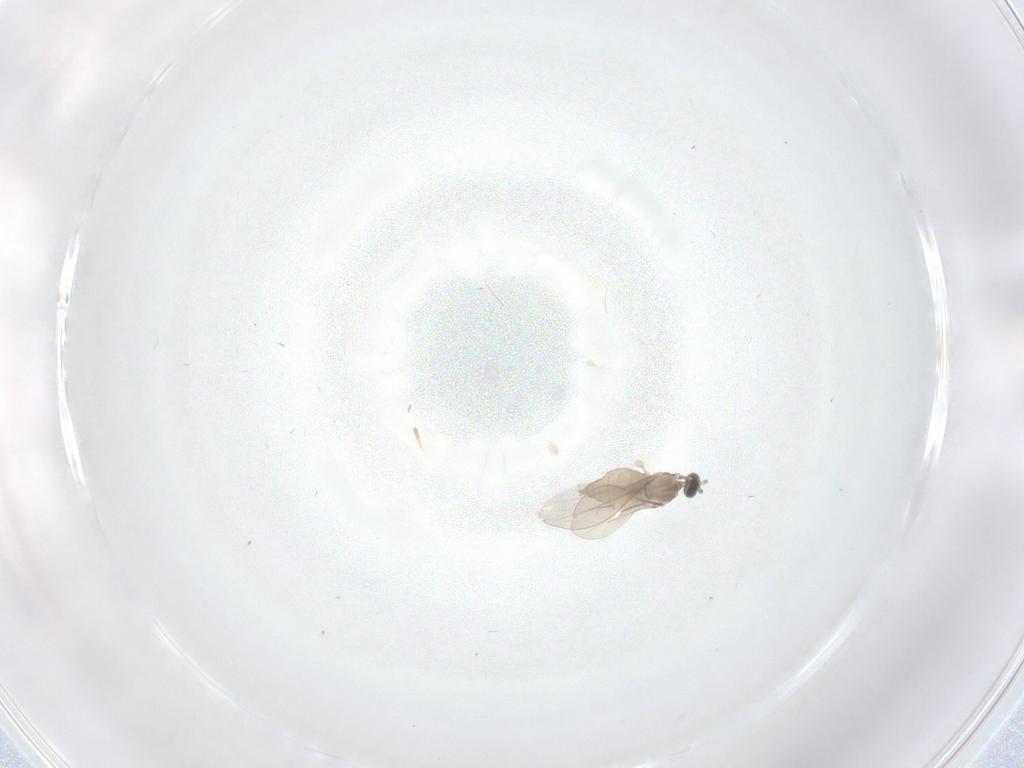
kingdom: Animalia
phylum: Arthropoda
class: Insecta
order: Diptera
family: Cecidomyiidae
